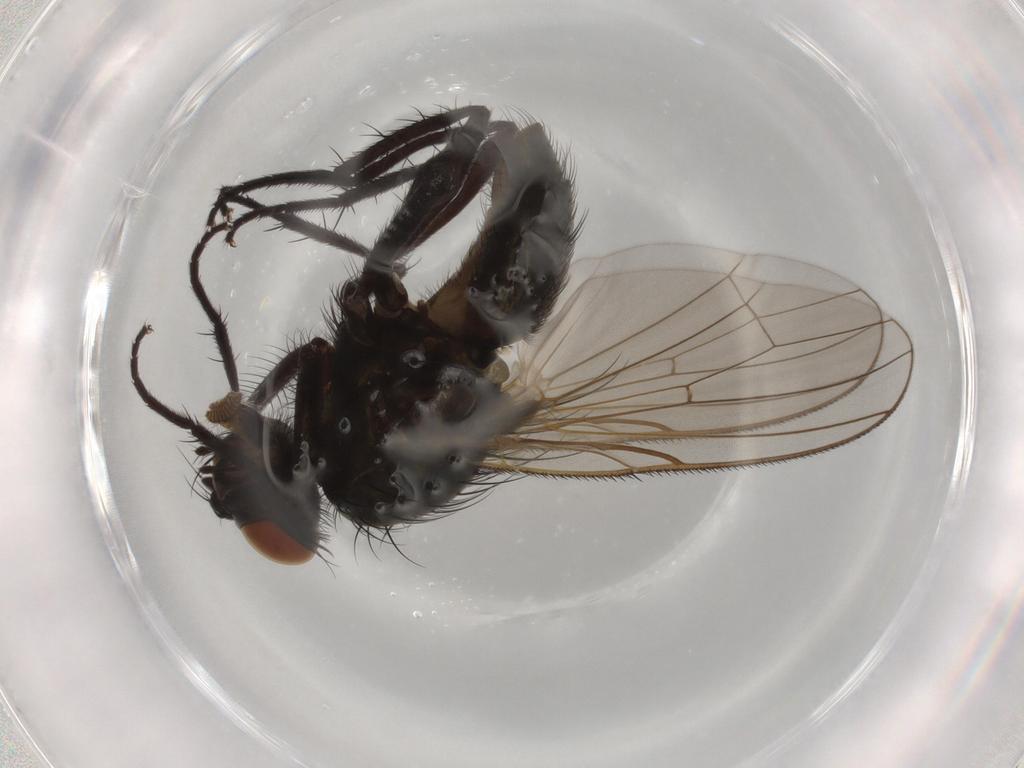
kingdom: Animalia
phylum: Arthropoda
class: Insecta
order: Diptera
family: Anthomyiidae
